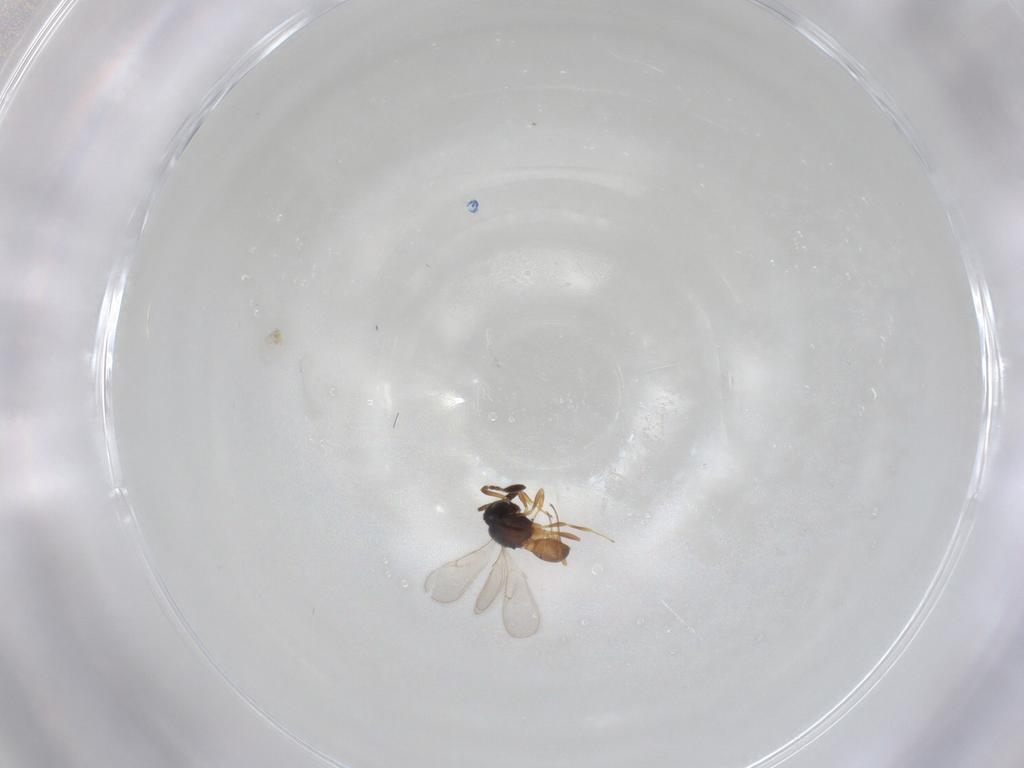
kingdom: Animalia
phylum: Arthropoda
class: Insecta
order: Hymenoptera
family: Scelionidae
